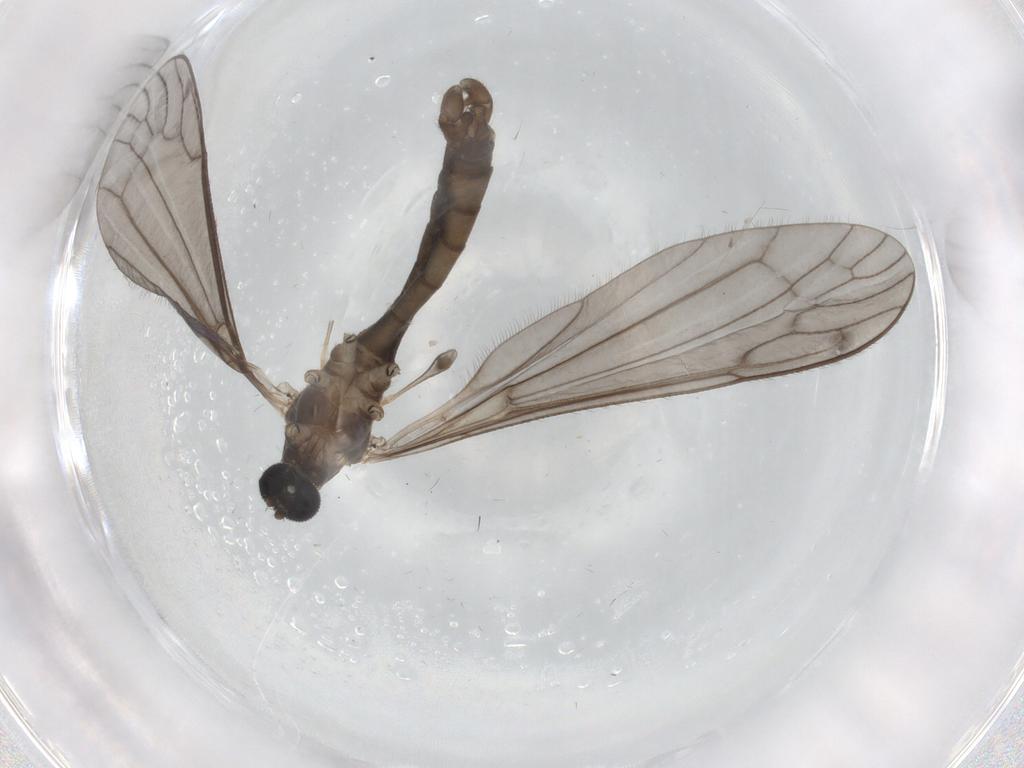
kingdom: Animalia
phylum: Arthropoda
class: Insecta
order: Diptera
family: Limoniidae
